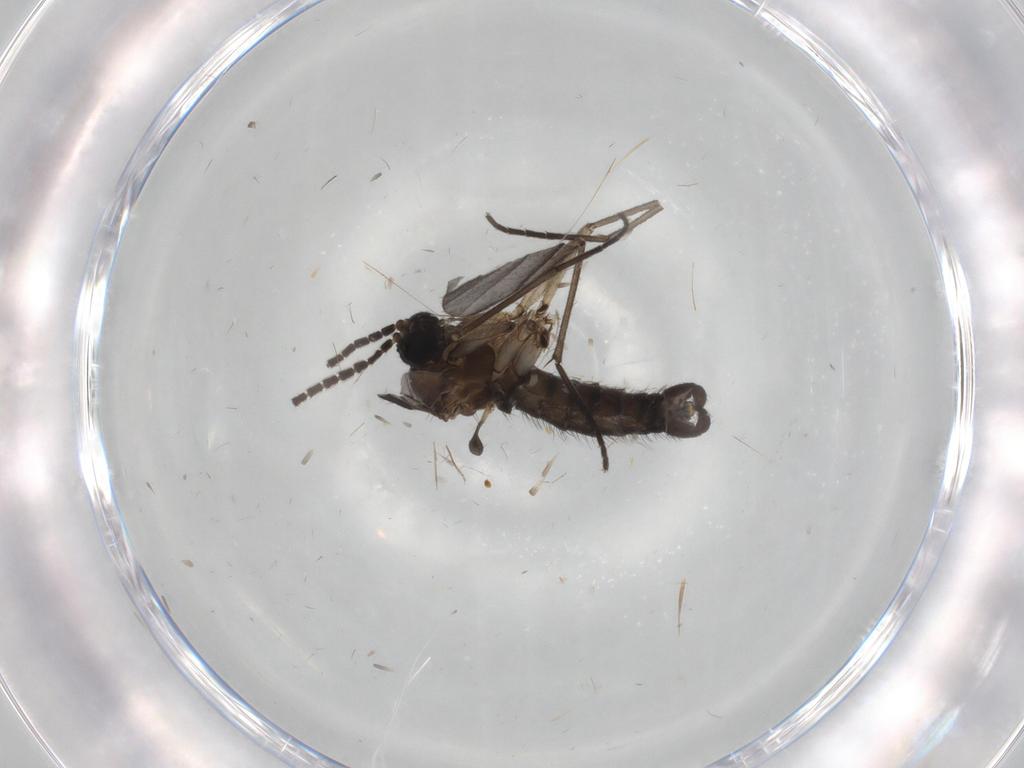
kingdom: Animalia
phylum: Arthropoda
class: Insecta
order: Diptera
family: Sciaridae
